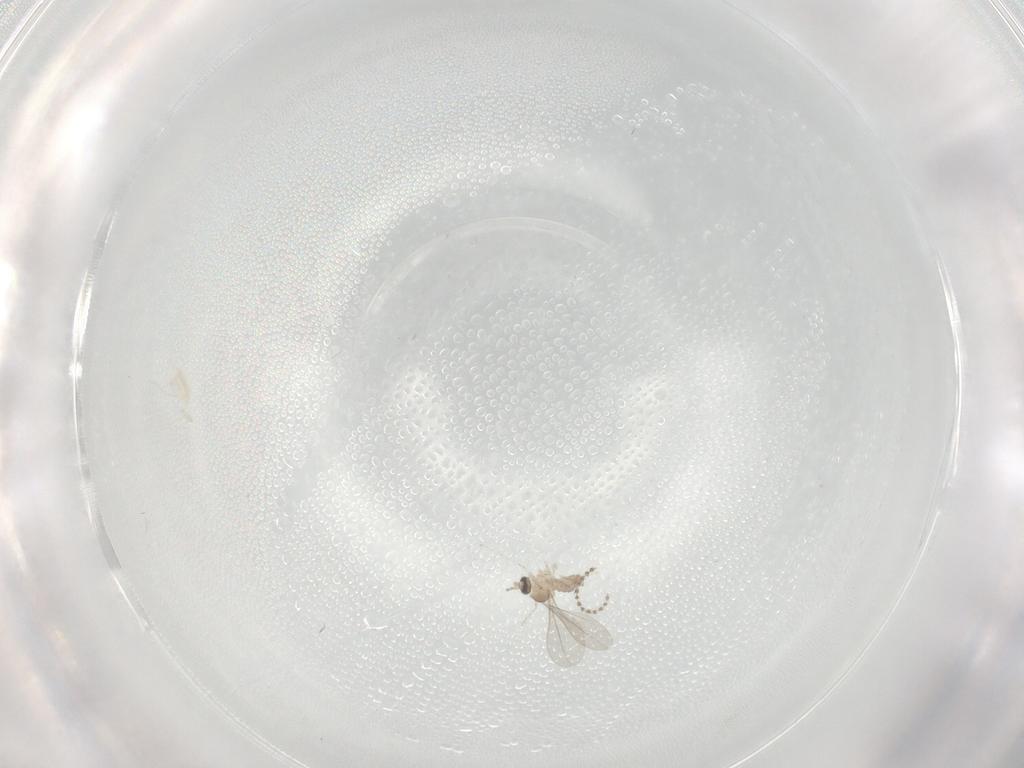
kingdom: Animalia
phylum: Arthropoda
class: Insecta
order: Diptera
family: Cecidomyiidae
